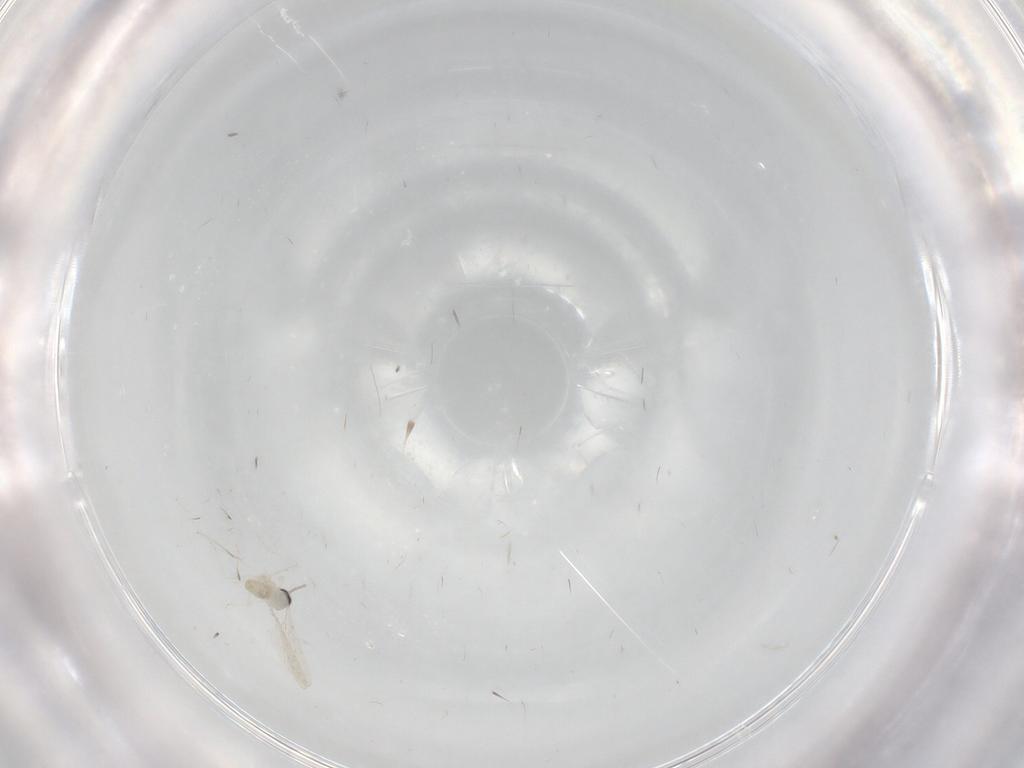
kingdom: Animalia
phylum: Arthropoda
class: Insecta
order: Diptera
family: Cecidomyiidae
